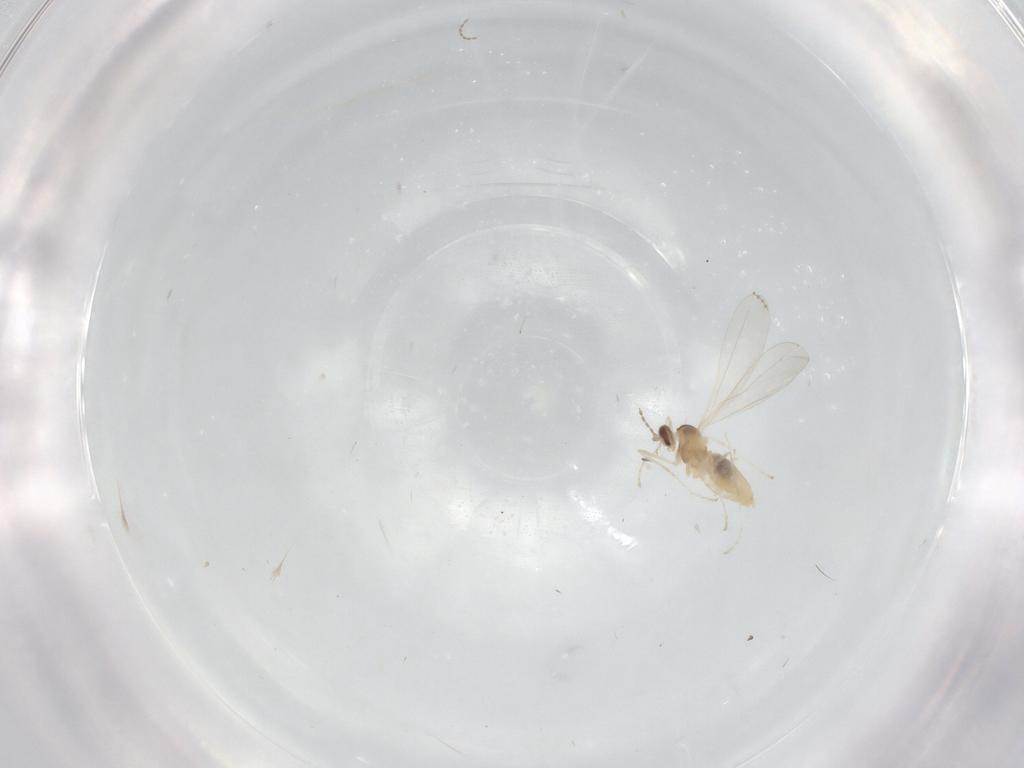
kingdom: Animalia
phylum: Arthropoda
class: Insecta
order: Diptera
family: Cecidomyiidae
